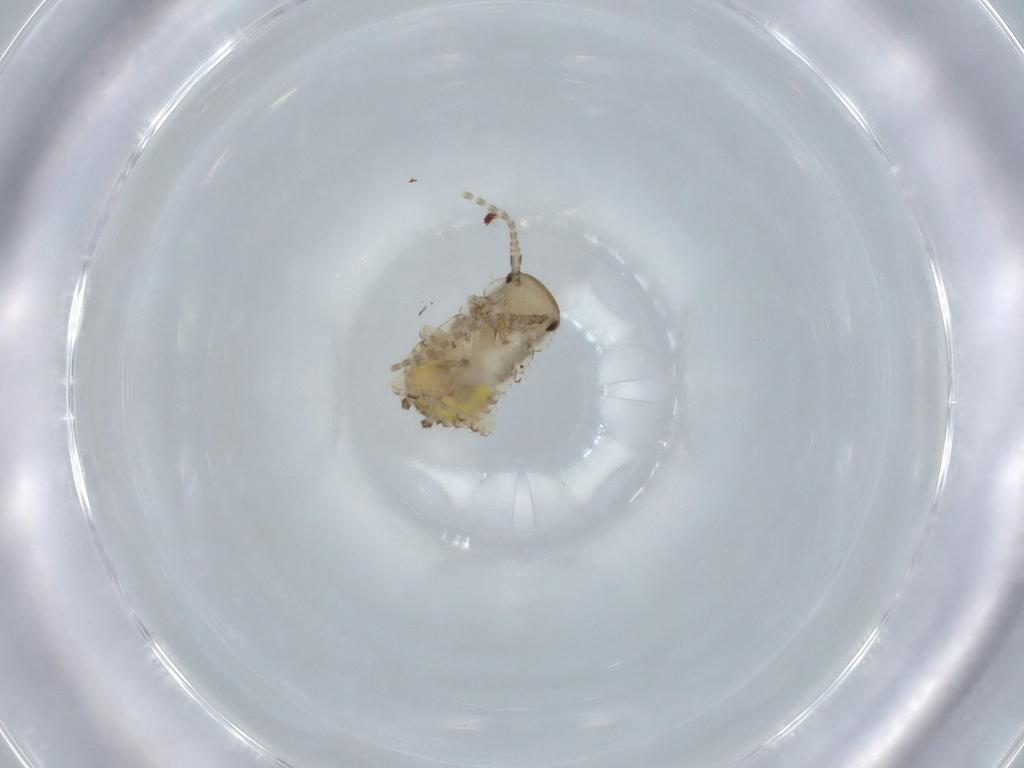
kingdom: Animalia
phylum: Arthropoda
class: Insecta
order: Blattodea
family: Ectobiidae
